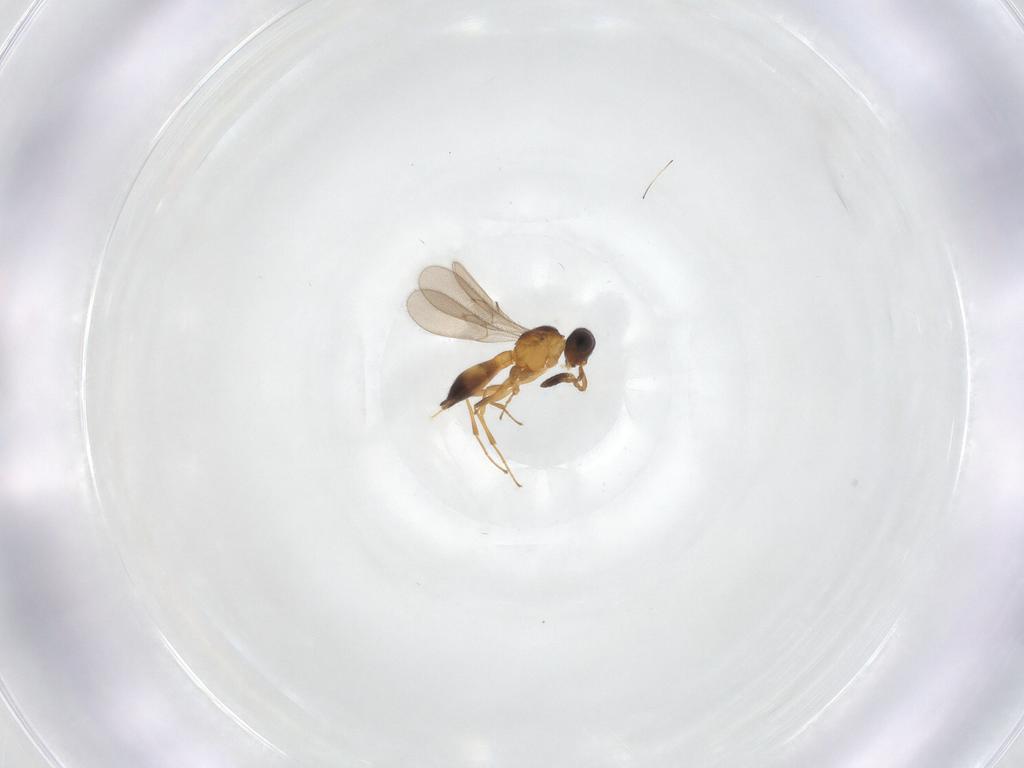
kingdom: Animalia
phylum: Arthropoda
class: Insecta
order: Hymenoptera
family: Scelionidae
